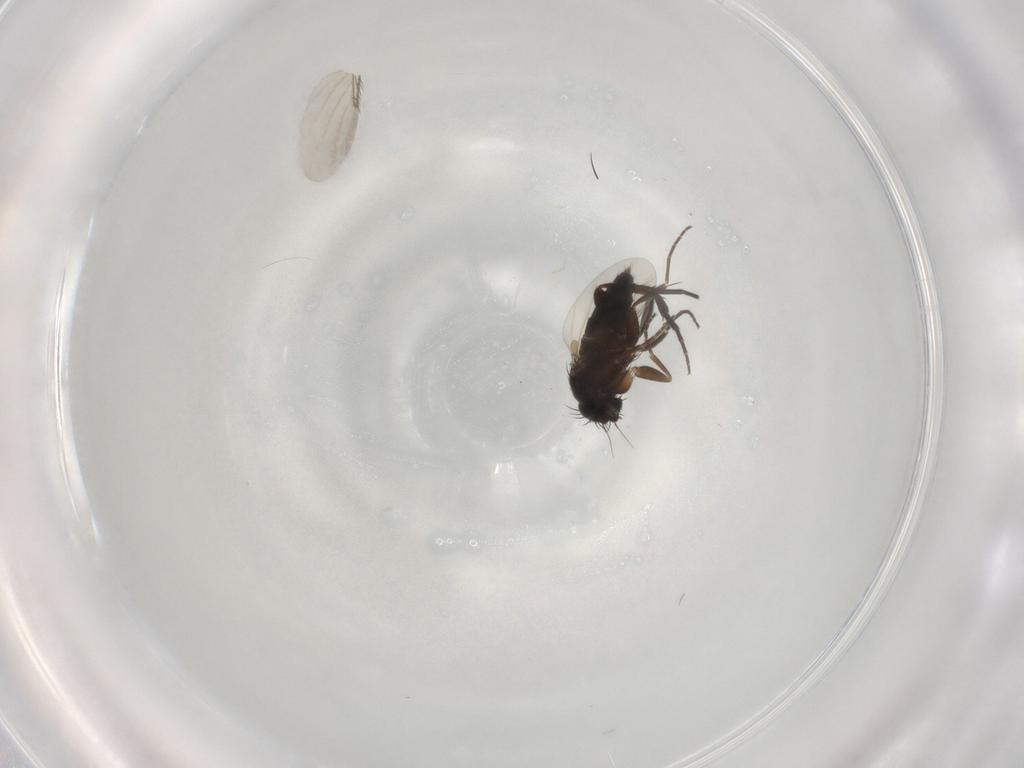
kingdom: Animalia
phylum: Arthropoda
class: Insecta
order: Diptera
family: Phoridae
